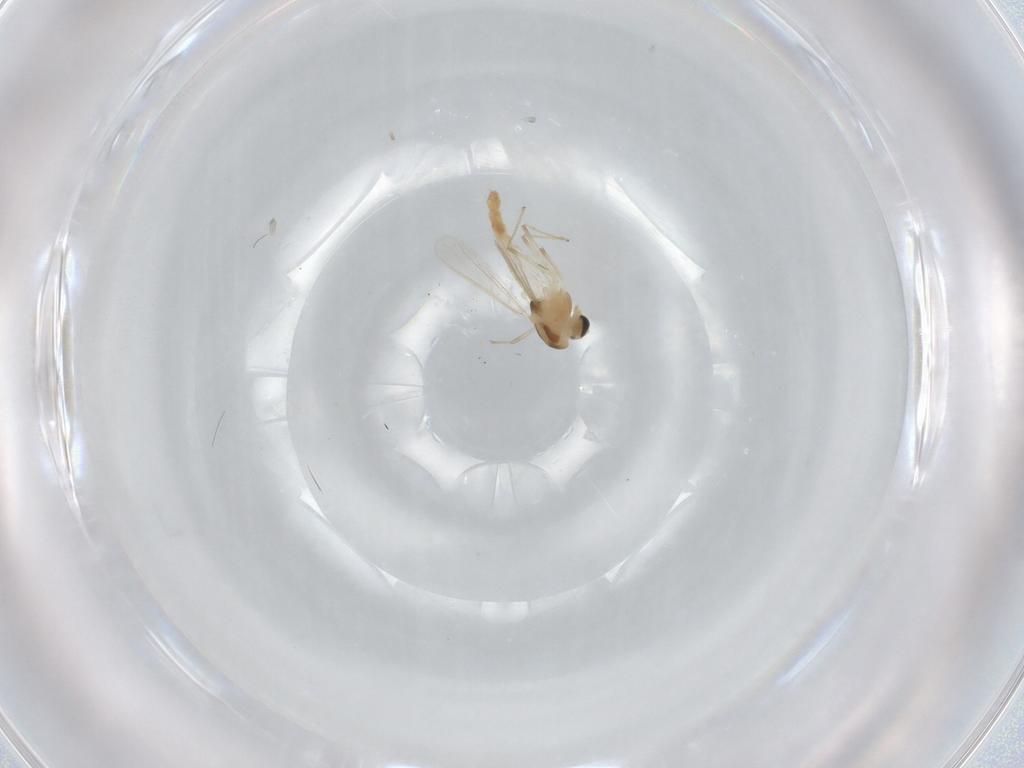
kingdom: Animalia
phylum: Arthropoda
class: Insecta
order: Diptera
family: Chironomidae
